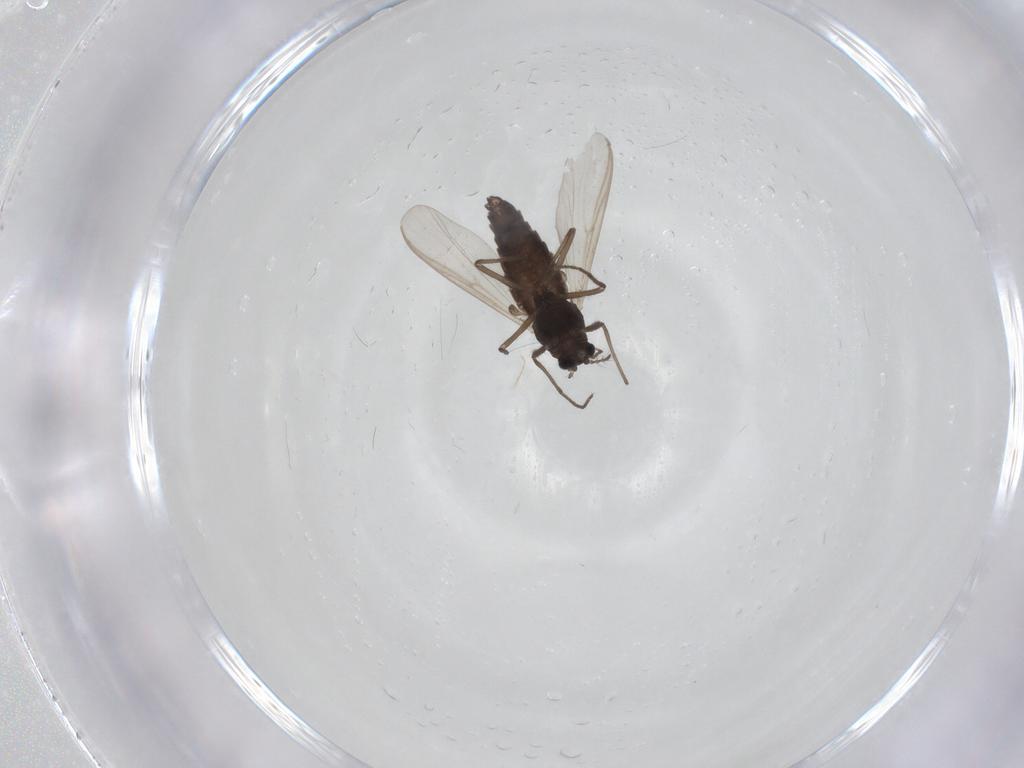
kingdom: Animalia
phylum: Arthropoda
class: Insecta
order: Diptera
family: Chironomidae
